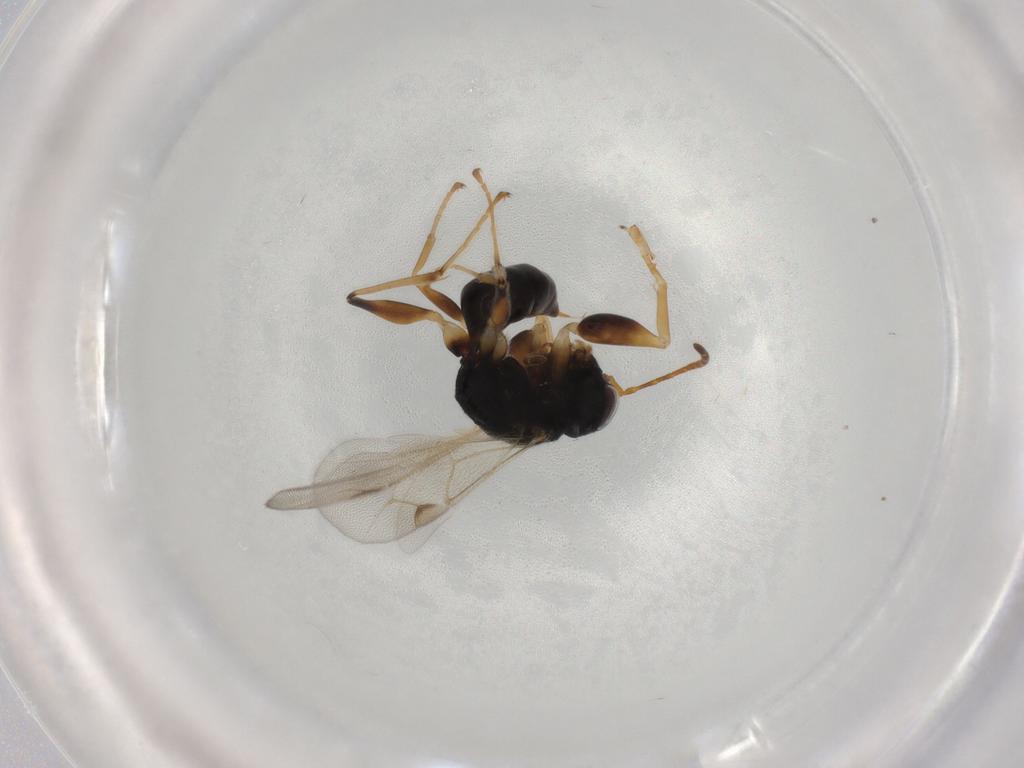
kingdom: Animalia
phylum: Arthropoda
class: Insecta
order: Hymenoptera
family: Dryinidae
